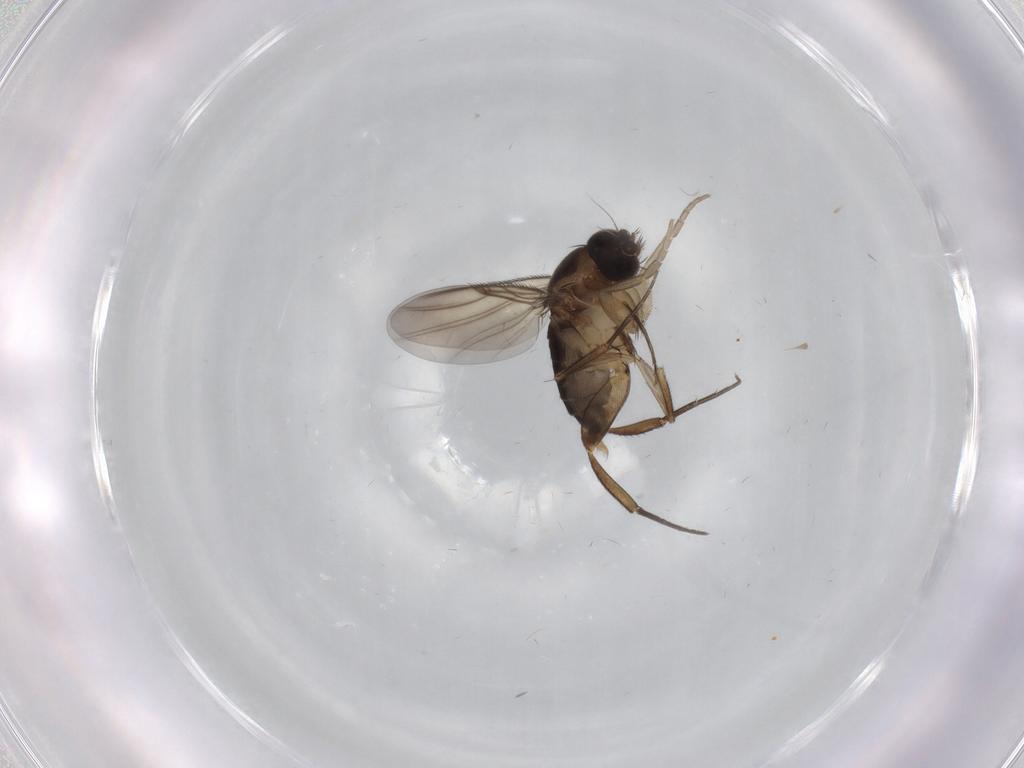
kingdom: Animalia
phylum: Arthropoda
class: Insecta
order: Diptera
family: Phoridae
